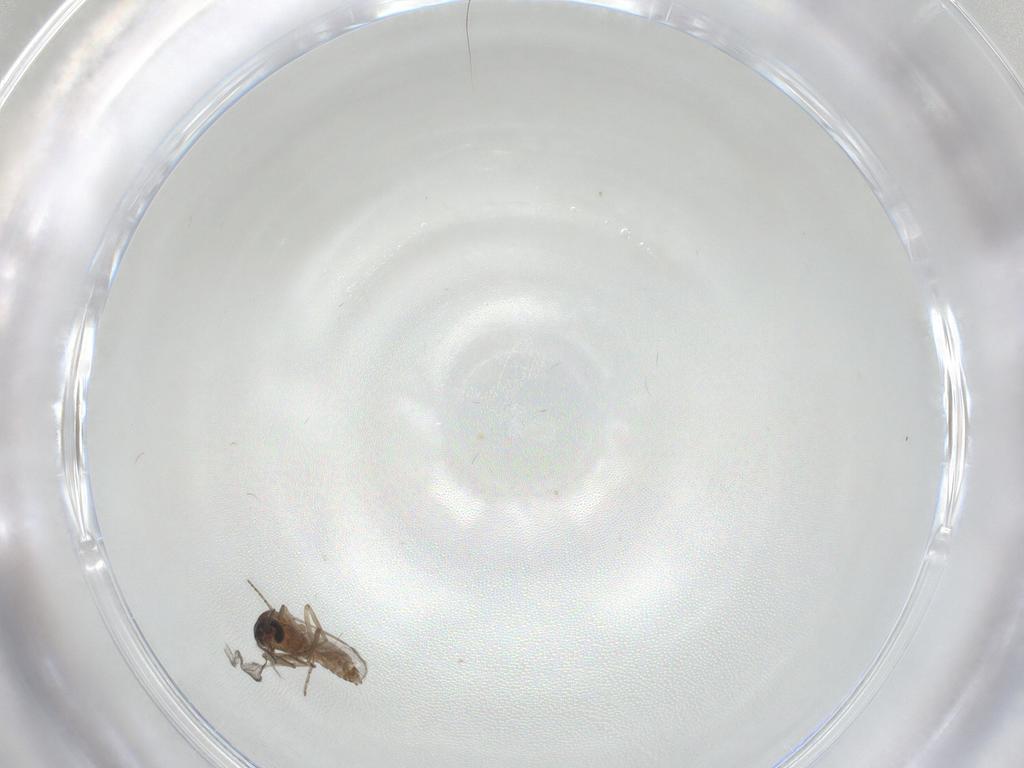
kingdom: Animalia
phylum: Arthropoda
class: Insecta
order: Diptera
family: Chironomidae
